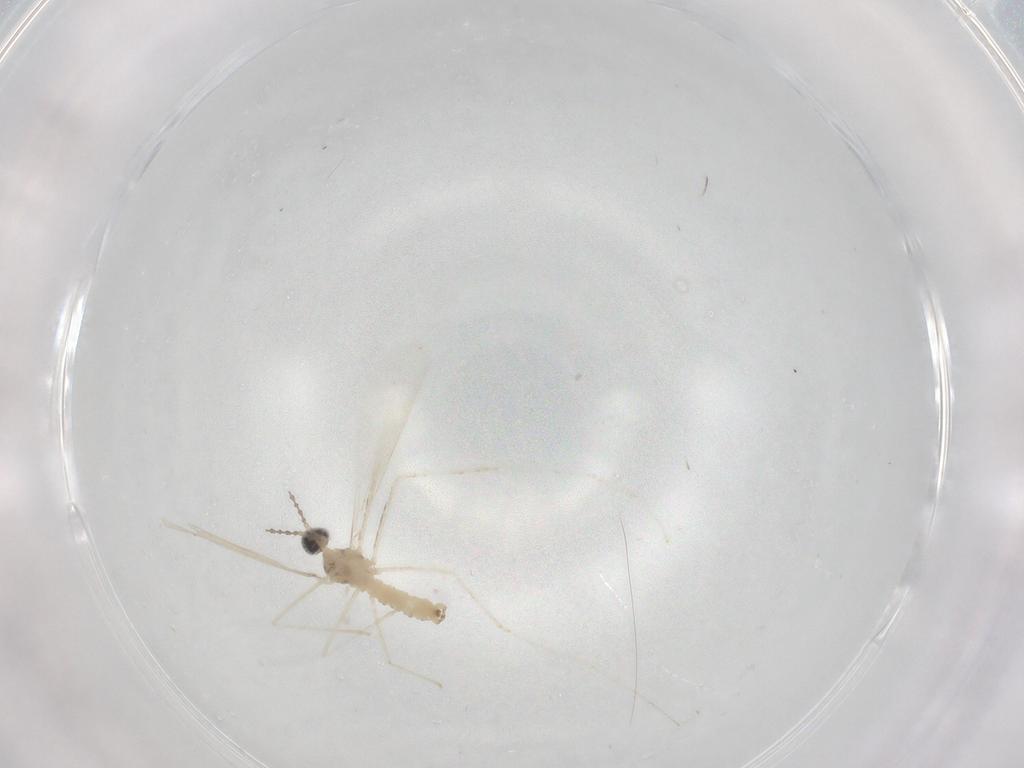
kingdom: Animalia
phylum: Arthropoda
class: Insecta
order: Diptera
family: Cecidomyiidae
